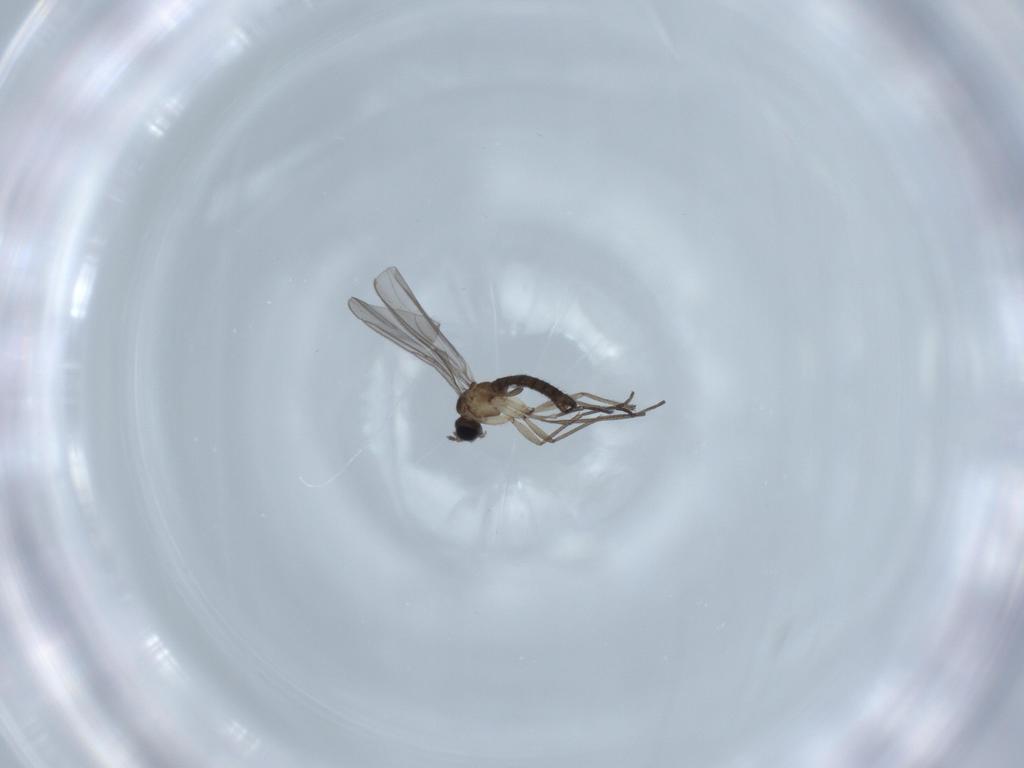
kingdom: Animalia
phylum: Arthropoda
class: Insecta
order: Diptera
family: Sciaridae
